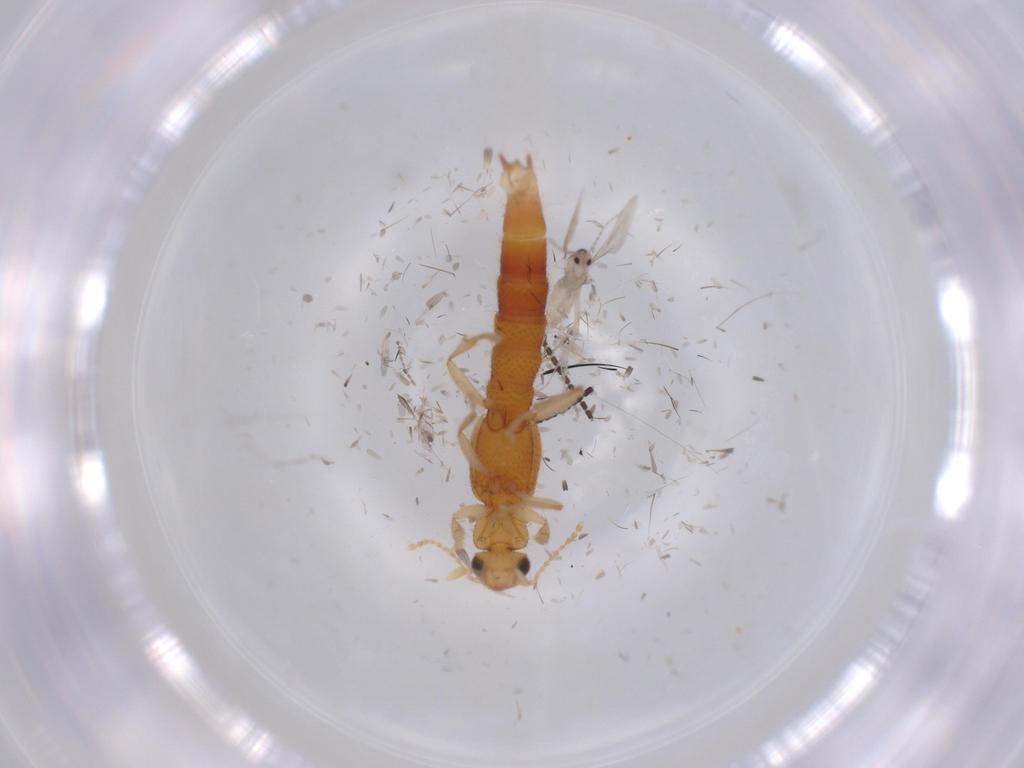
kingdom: Animalia
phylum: Arthropoda
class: Insecta
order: Coleoptera
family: Staphylinidae
